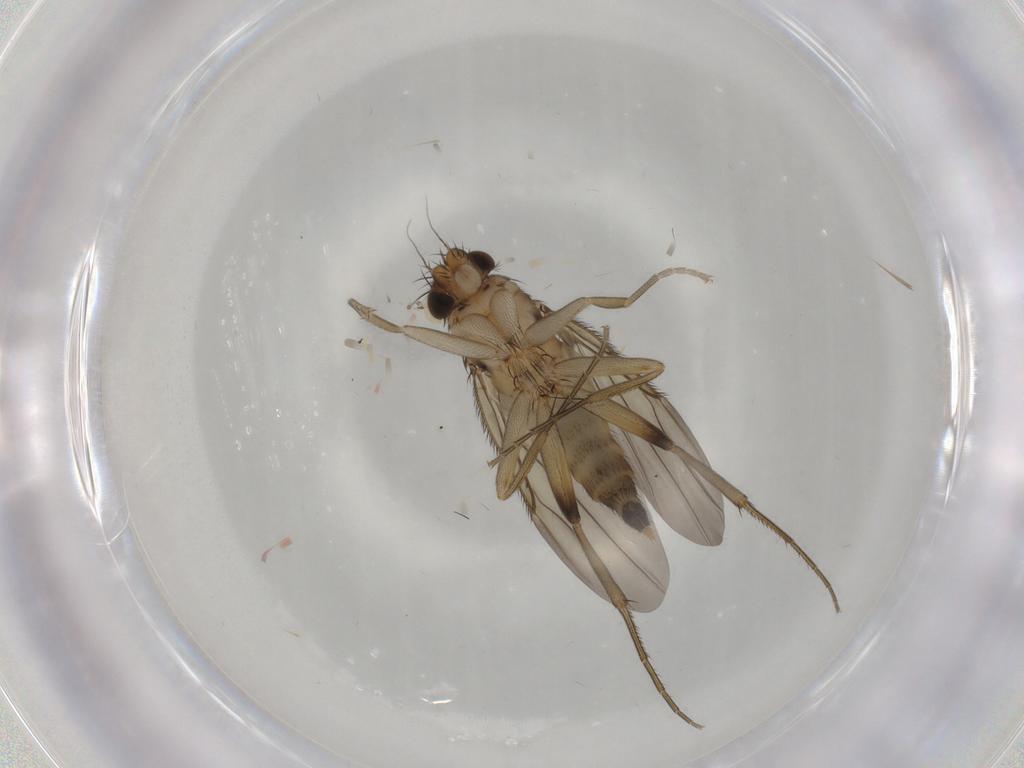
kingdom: Animalia
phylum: Arthropoda
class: Insecta
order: Diptera
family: Phoridae
